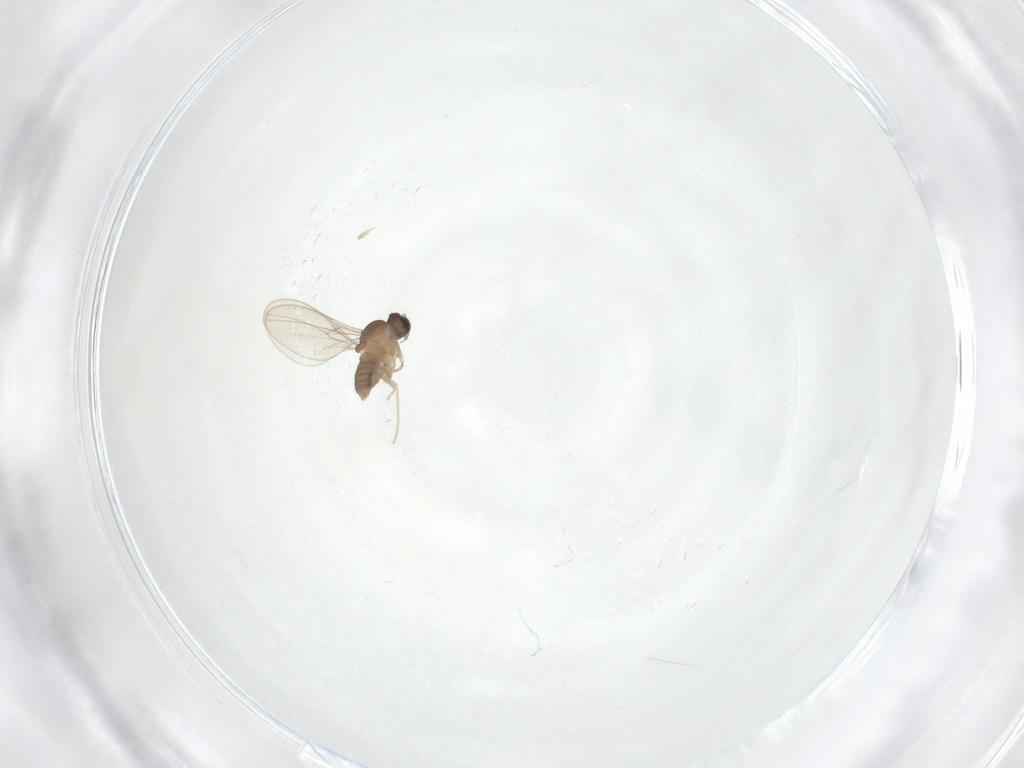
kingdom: Animalia
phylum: Arthropoda
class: Insecta
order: Diptera
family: Cecidomyiidae
